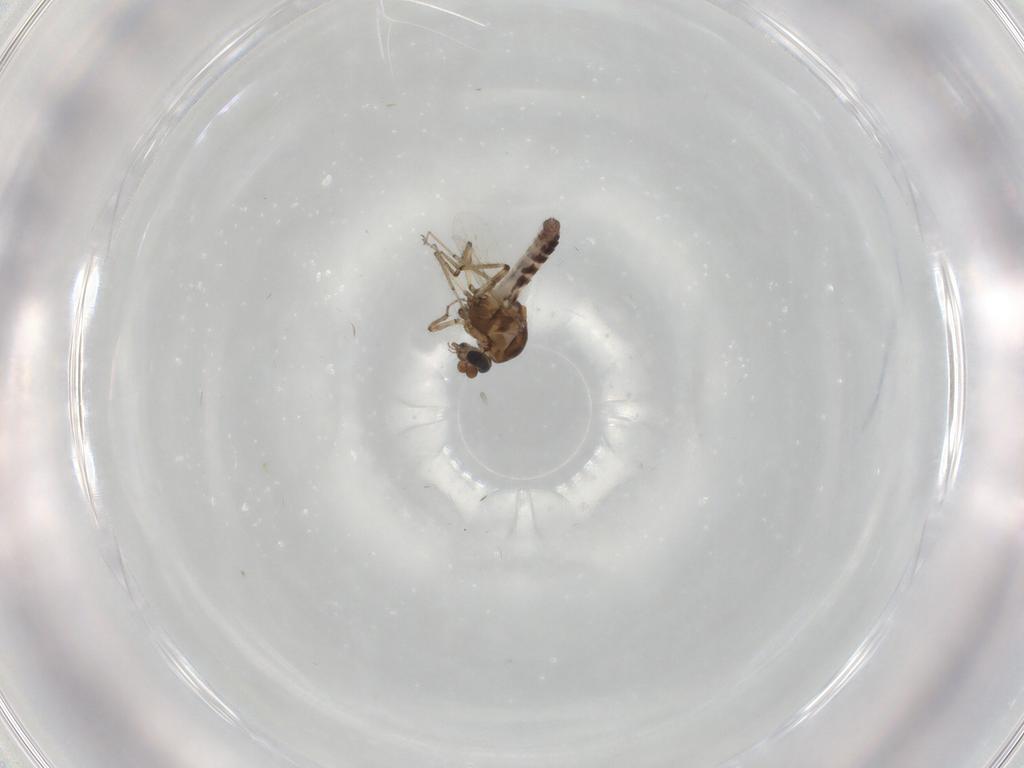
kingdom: Animalia
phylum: Arthropoda
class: Insecta
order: Diptera
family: Ceratopogonidae
